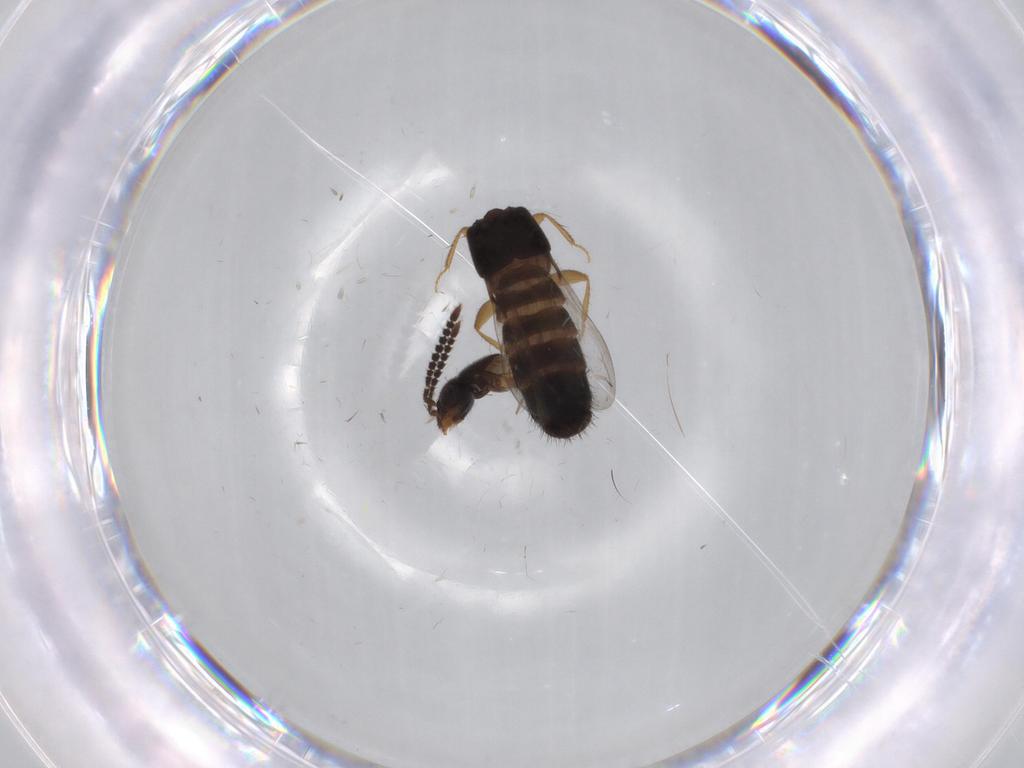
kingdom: Animalia
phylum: Arthropoda
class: Insecta
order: Coleoptera
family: Staphylinidae
